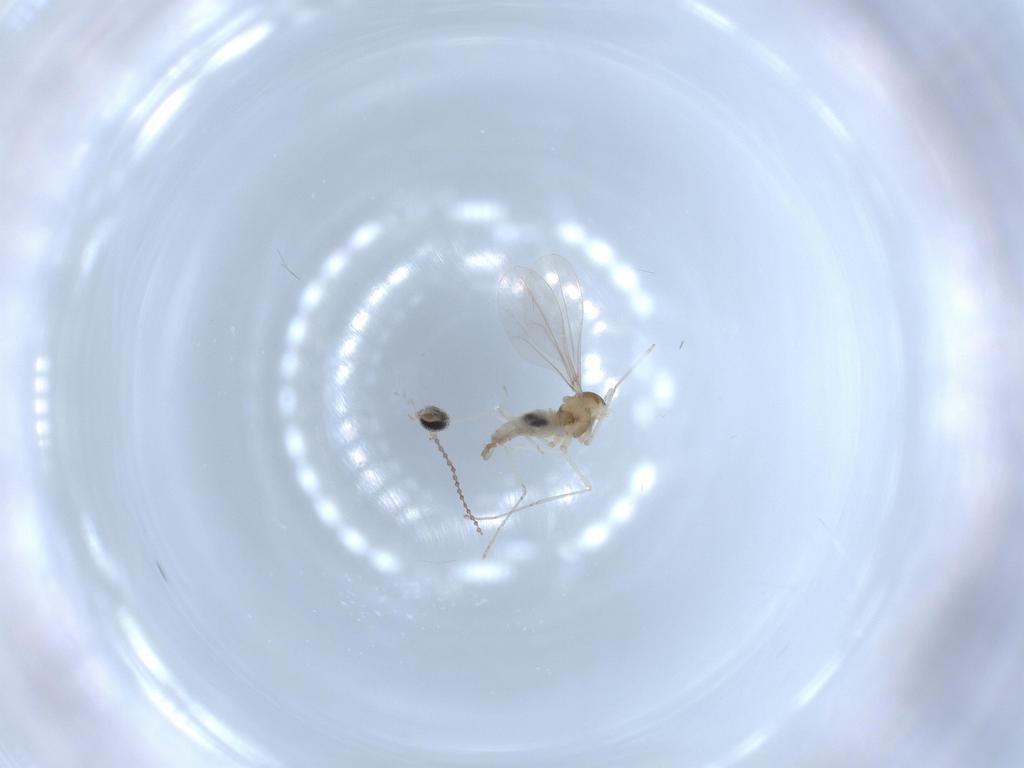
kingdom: Animalia
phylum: Arthropoda
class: Insecta
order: Diptera
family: Cecidomyiidae
